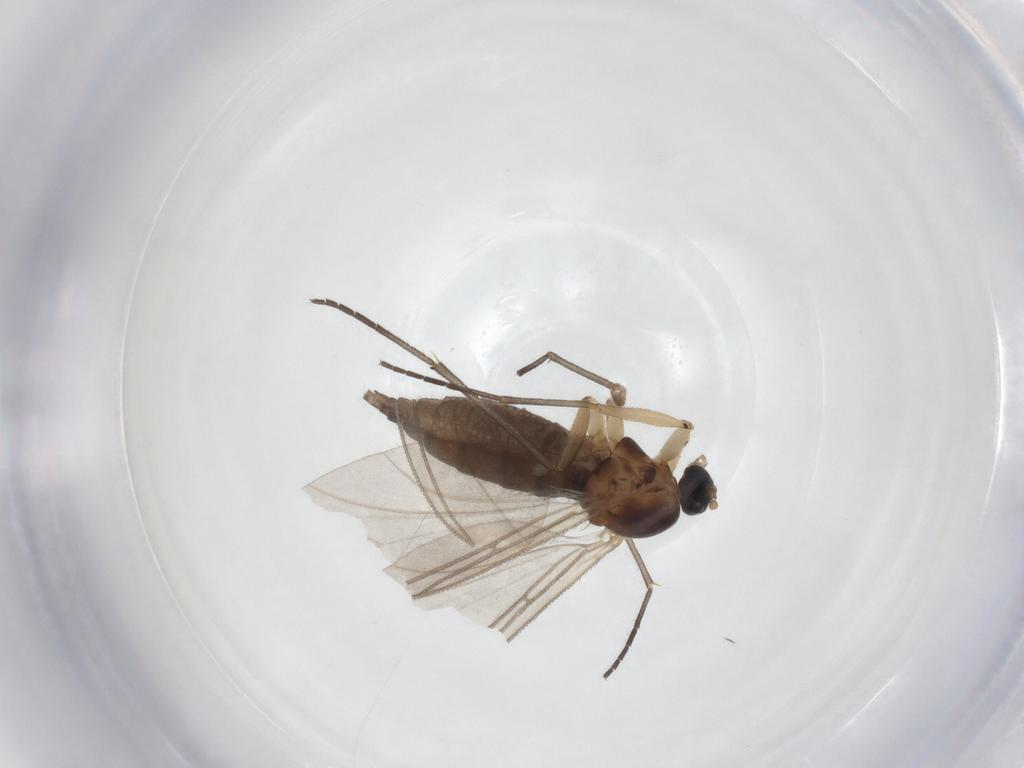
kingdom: Animalia
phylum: Arthropoda
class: Insecta
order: Diptera
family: Sciaridae
